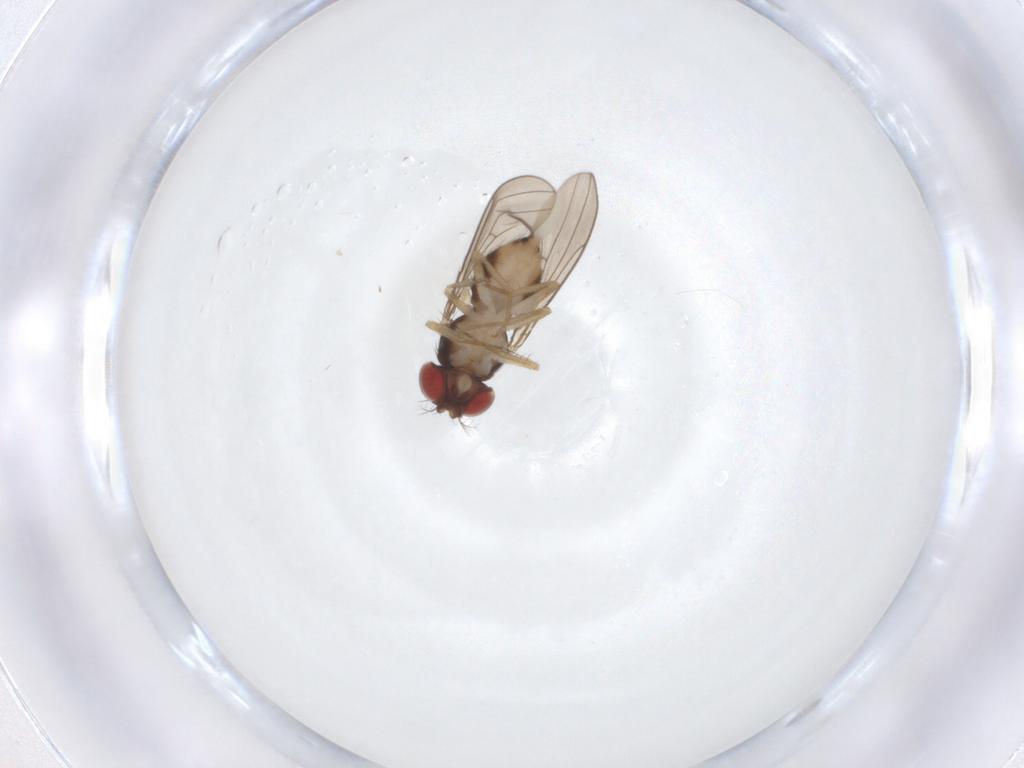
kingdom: Animalia
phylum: Arthropoda
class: Insecta
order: Diptera
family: Drosophilidae
